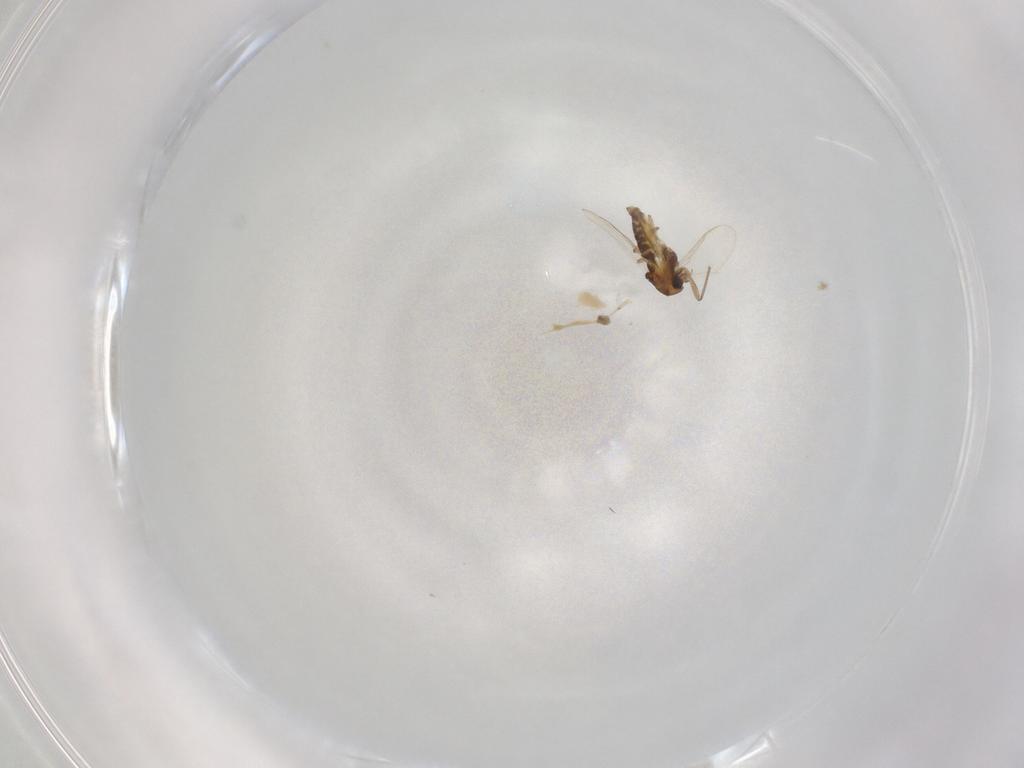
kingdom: Animalia
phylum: Arthropoda
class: Insecta
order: Diptera
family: Chironomidae
